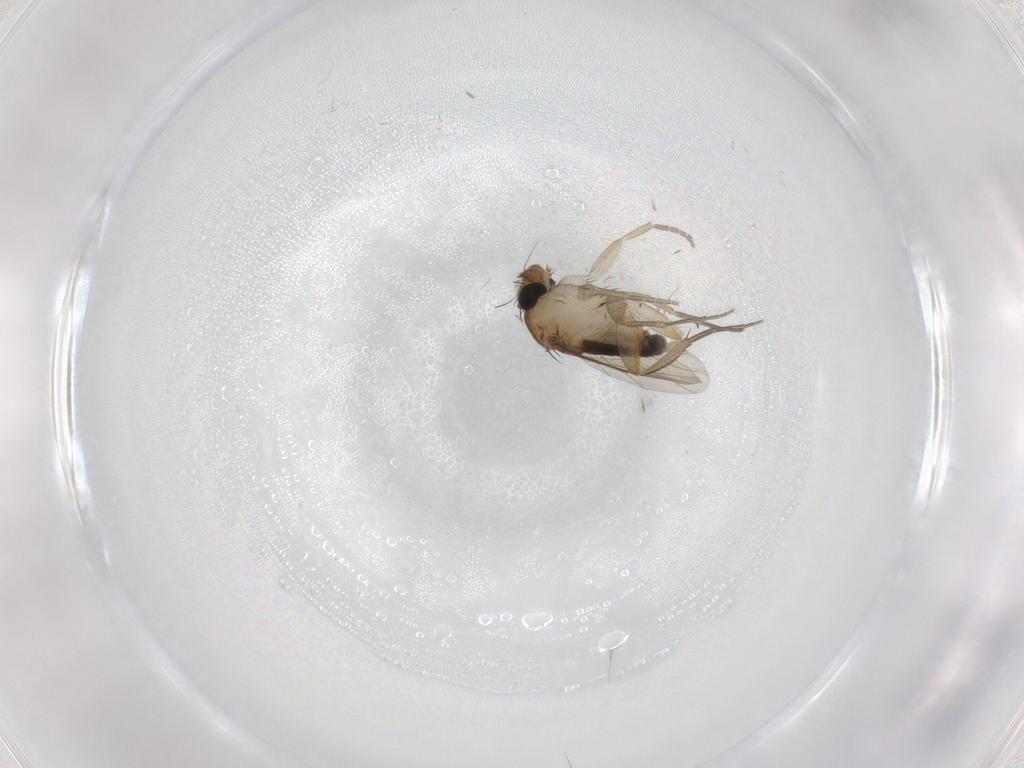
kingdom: Animalia
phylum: Arthropoda
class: Insecta
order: Diptera
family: Phoridae
